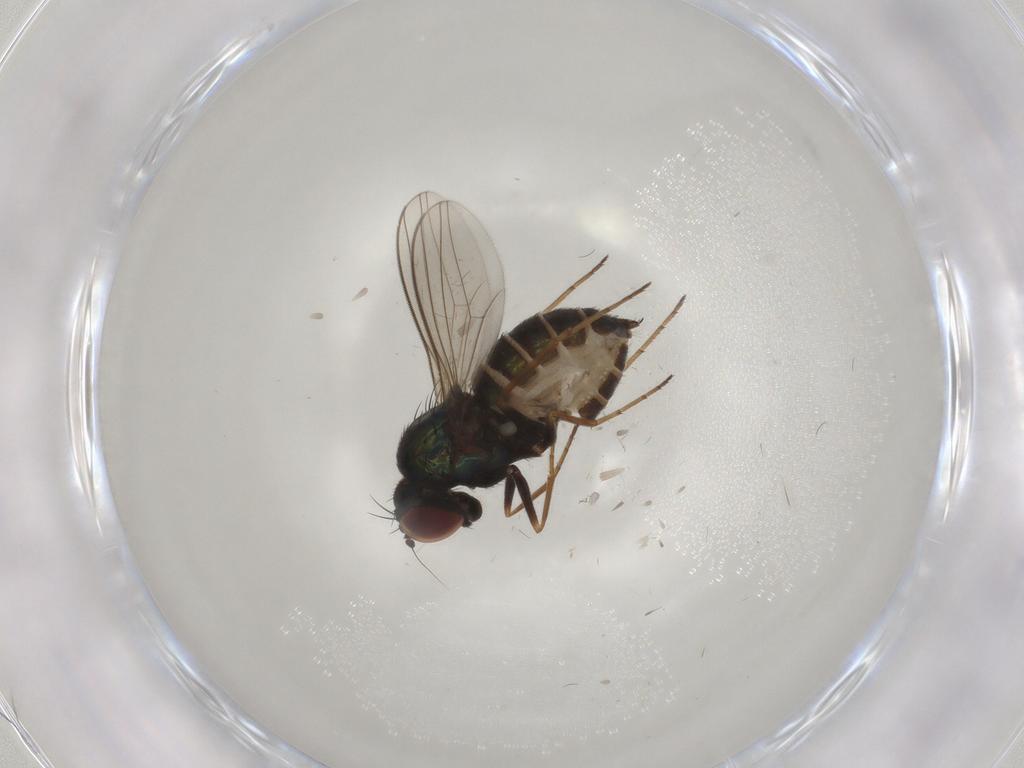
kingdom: Animalia
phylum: Arthropoda
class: Insecta
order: Diptera
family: Dolichopodidae
